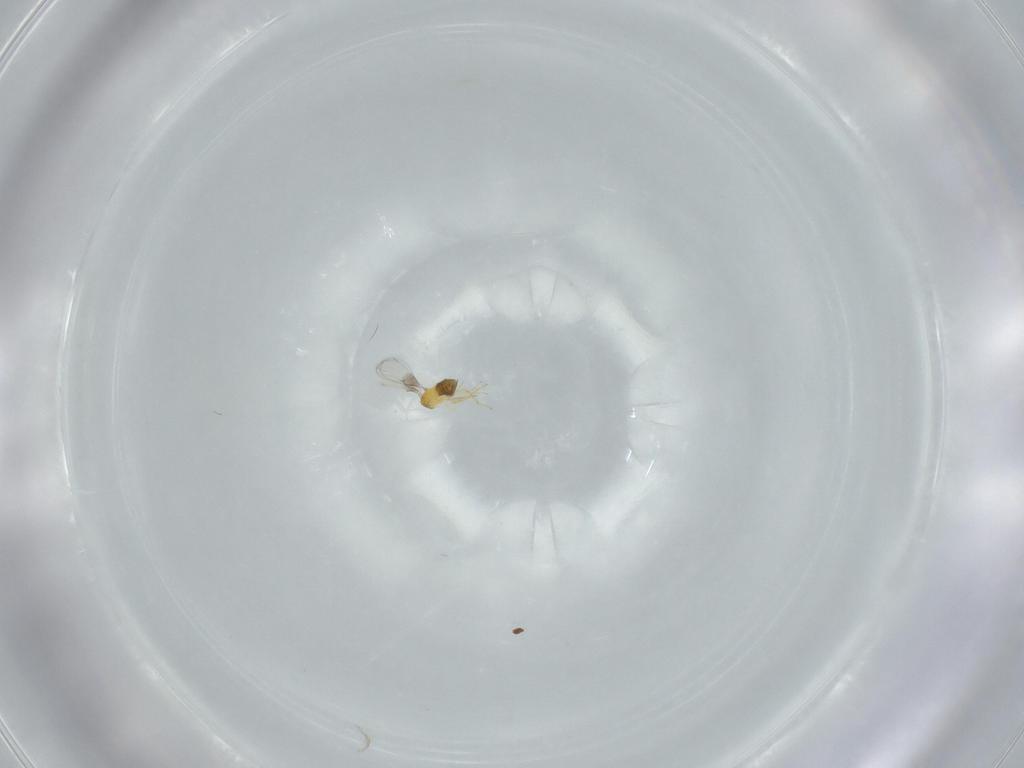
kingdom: Animalia
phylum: Arthropoda
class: Insecta
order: Hymenoptera
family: Trichogrammatidae
